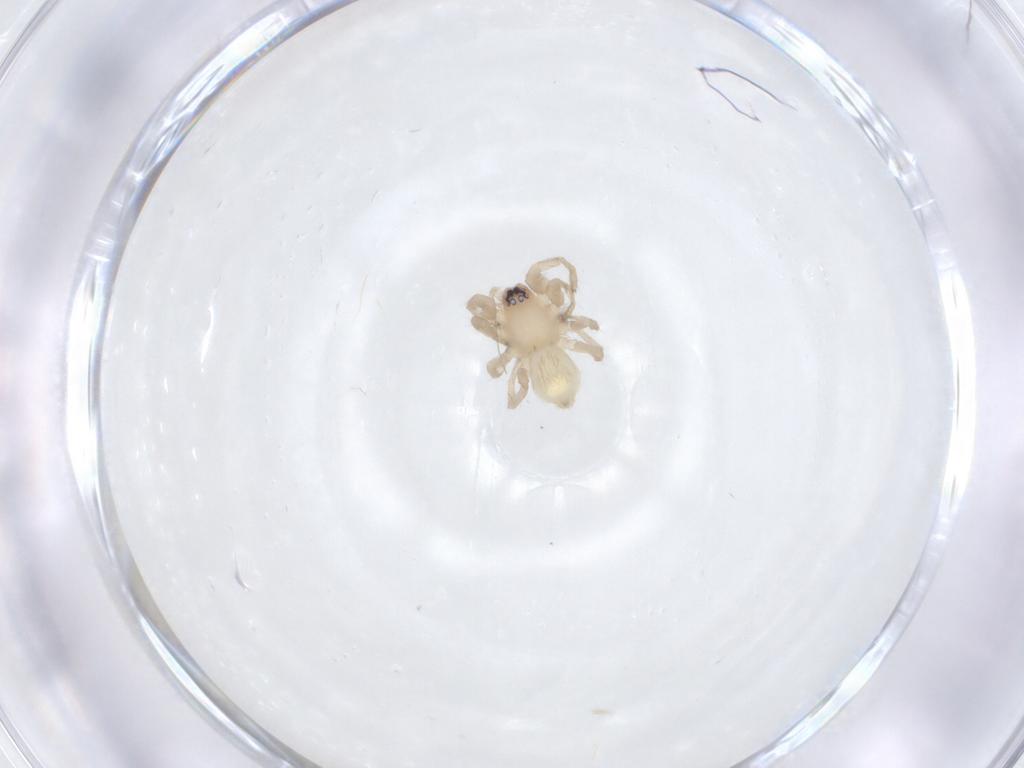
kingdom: Animalia
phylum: Arthropoda
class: Arachnida
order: Araneae
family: Gnaphosidae
